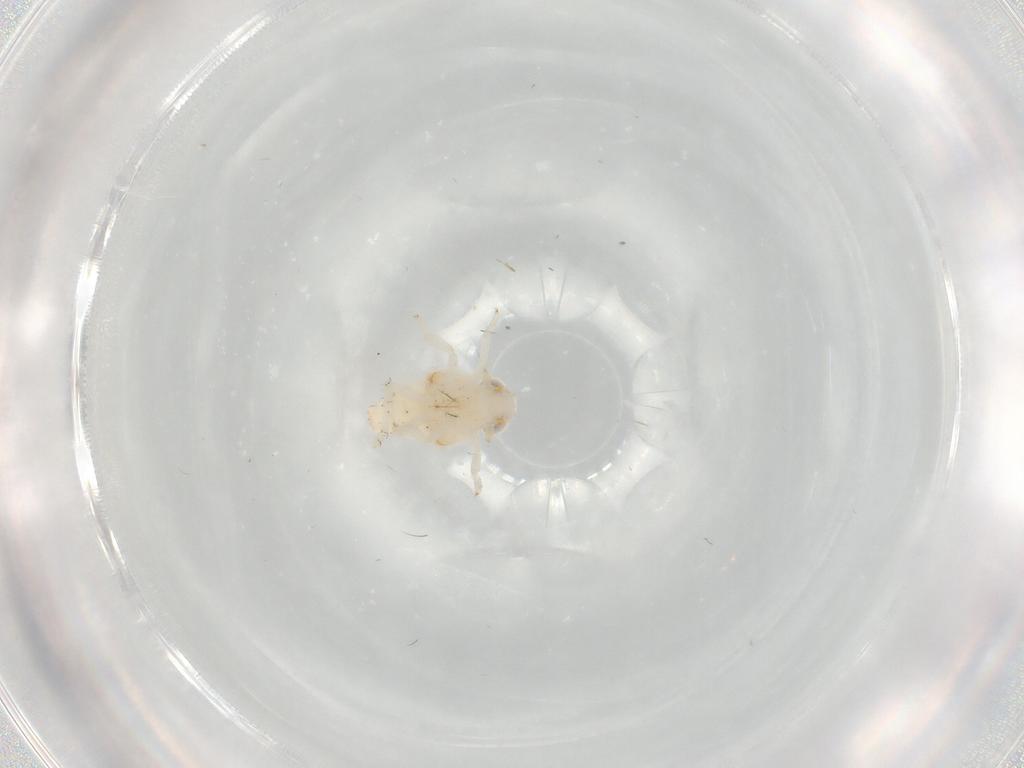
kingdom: Animalia
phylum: Arthropoda
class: Insecta
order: Hemiptera
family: Nogodinidae
